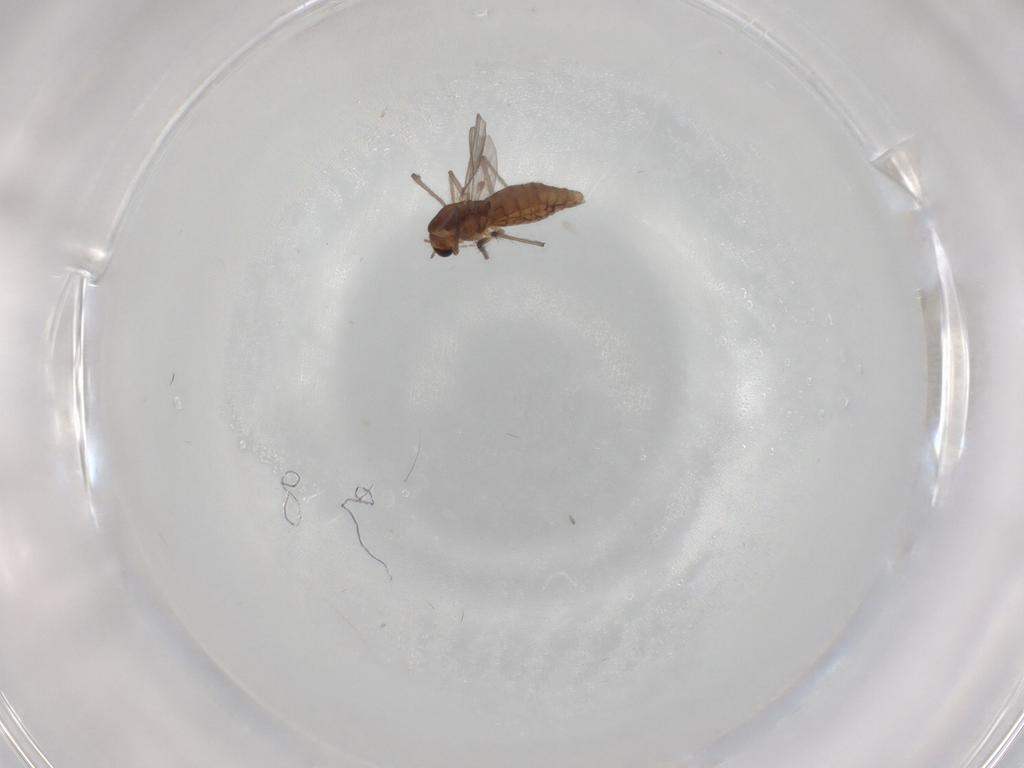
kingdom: Animalia
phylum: Arthropoda
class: Insecta
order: Diptera
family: Chironomidae
